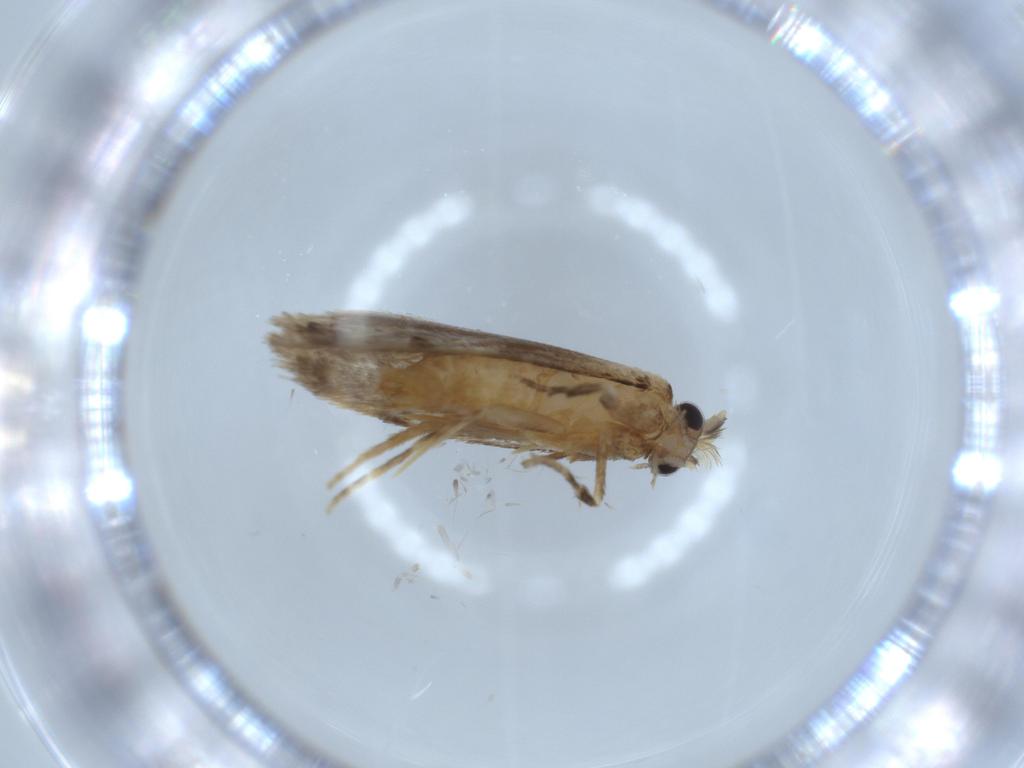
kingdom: Animalia
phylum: Arthropoda
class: Insecta
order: Lepidoptera
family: Tineidae
